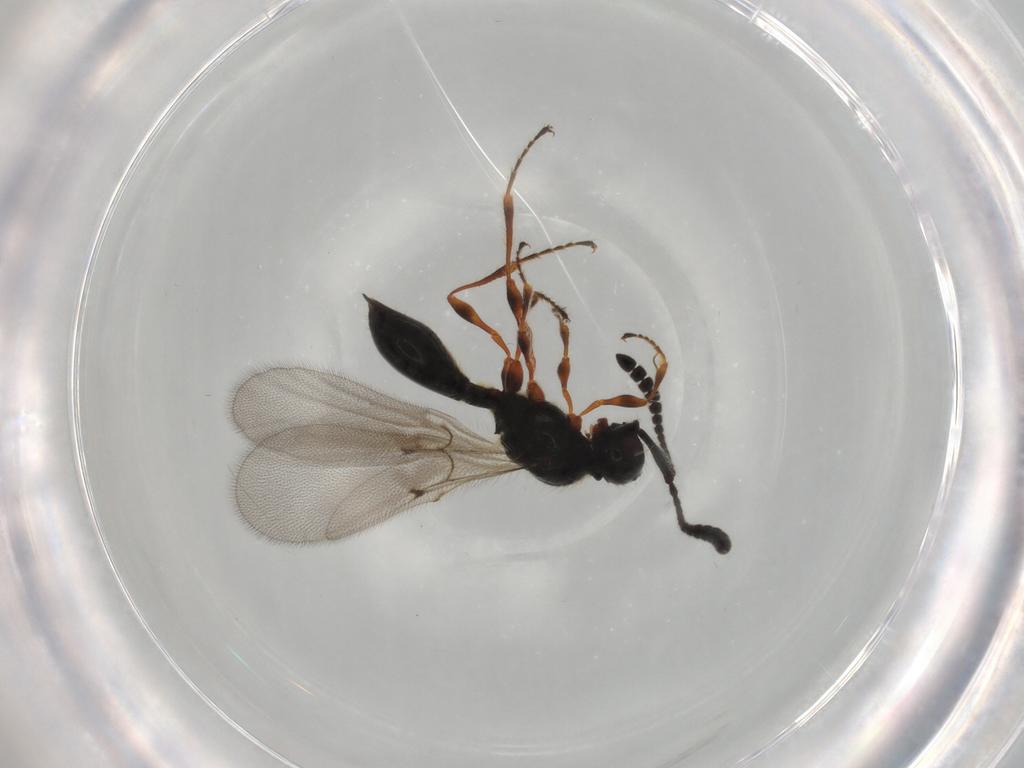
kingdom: Animalia
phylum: Arthropoda
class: Insecta
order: Hymenoptera
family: Diapriidae
